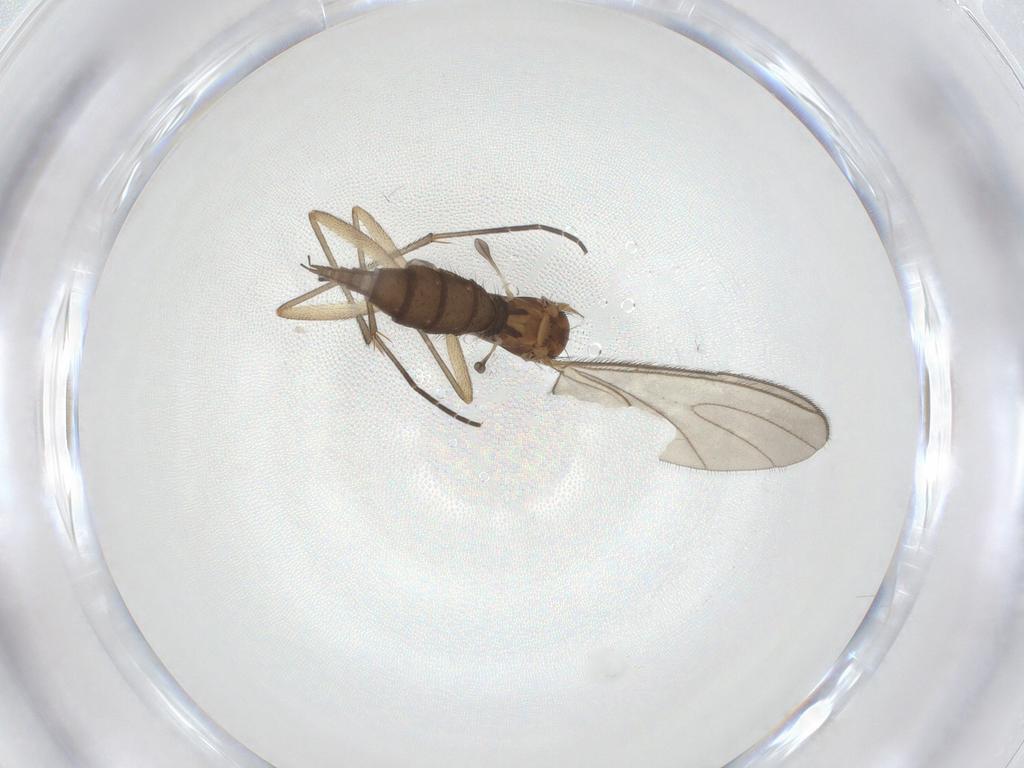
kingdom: Animalia
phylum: Arthropoda
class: Insecta
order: Diptera
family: Sciaridae
